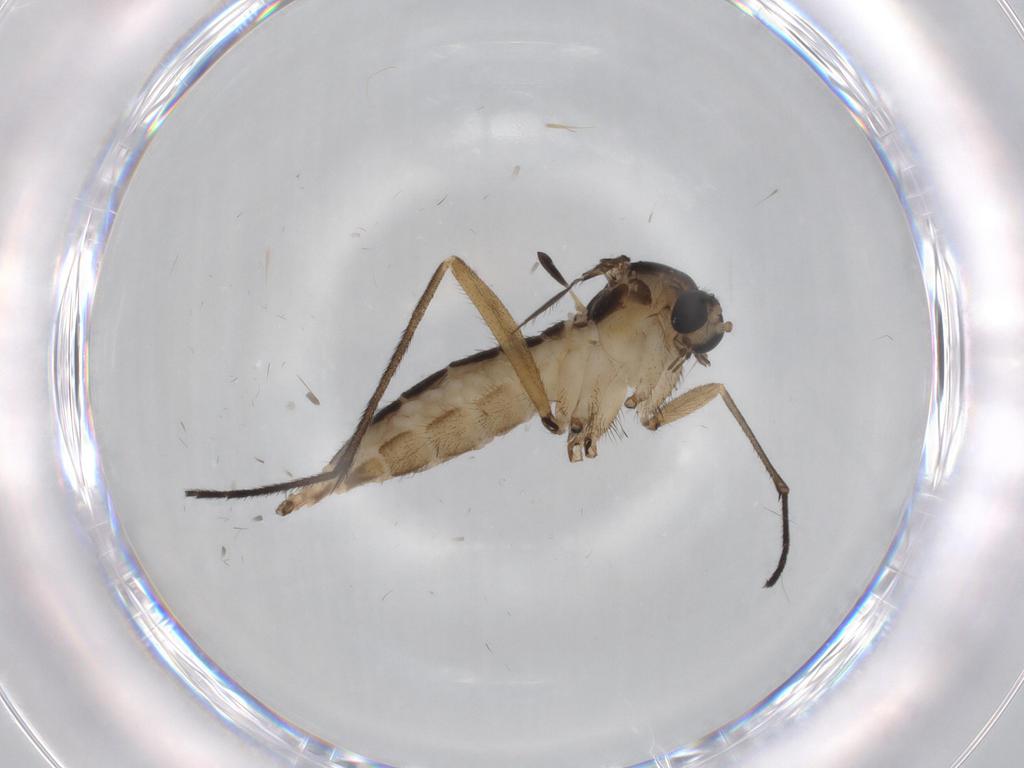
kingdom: Animalia
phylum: Arthropoda
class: Insecta
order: Diptera
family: Sciaridae
